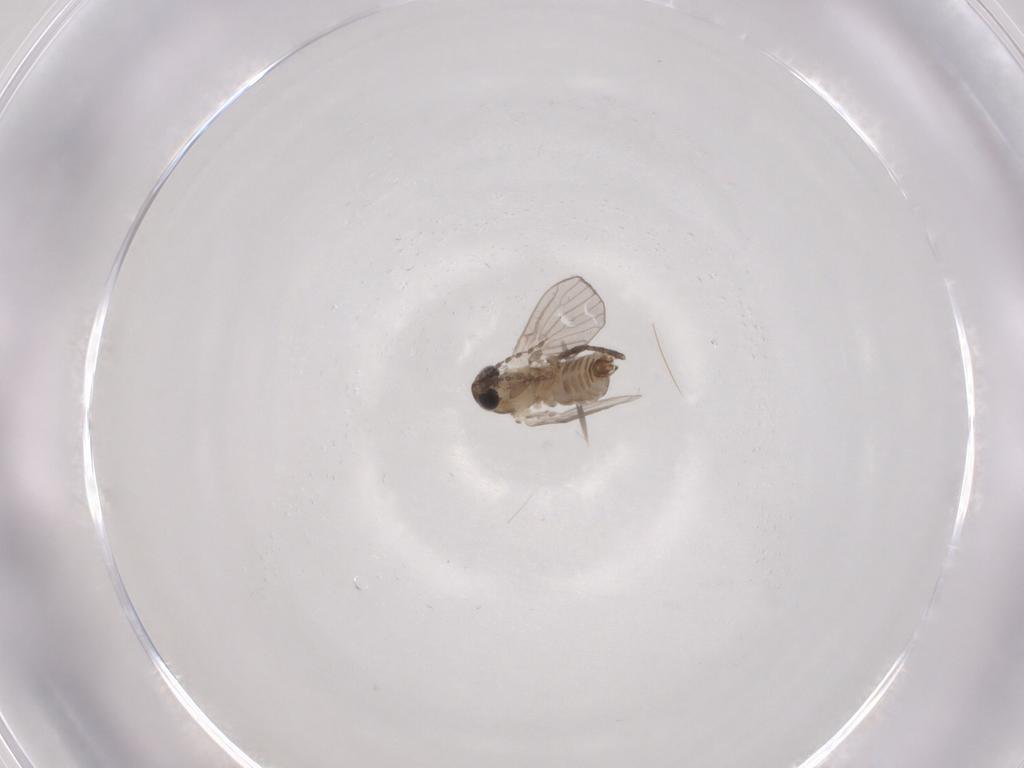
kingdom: Animalia
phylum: Arthropoda
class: Insecta
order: Diptera
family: Psychodidae
